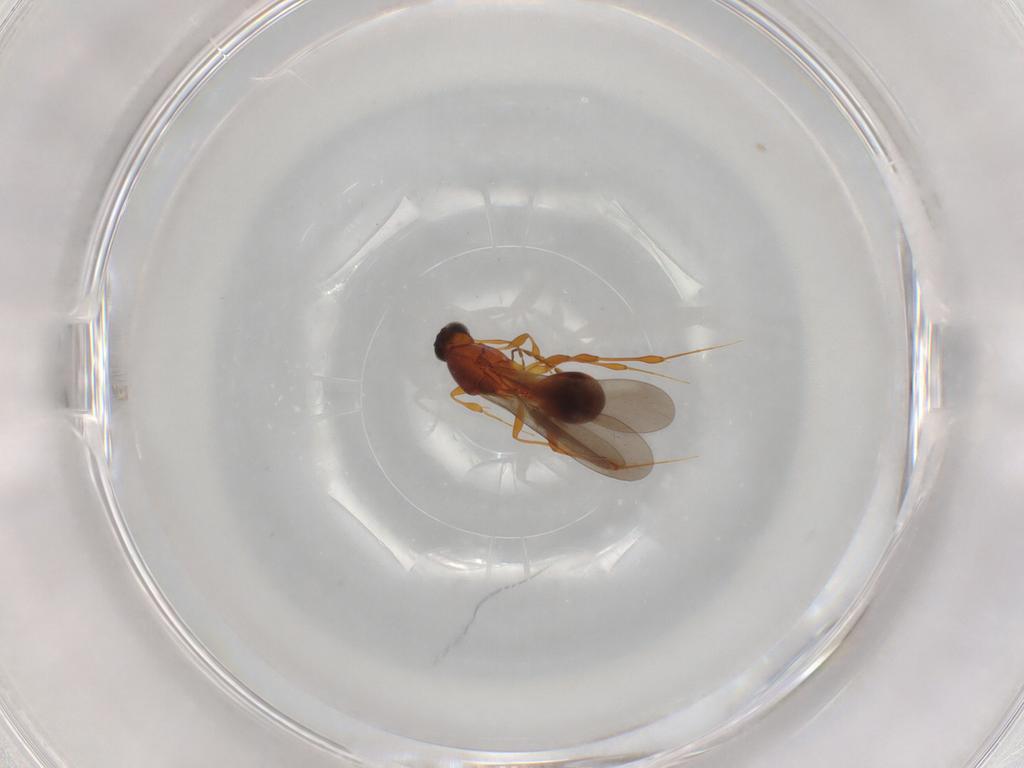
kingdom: Animalia
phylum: Arthropoda
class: Insecta
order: Hymenoptera
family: Platygastridae
